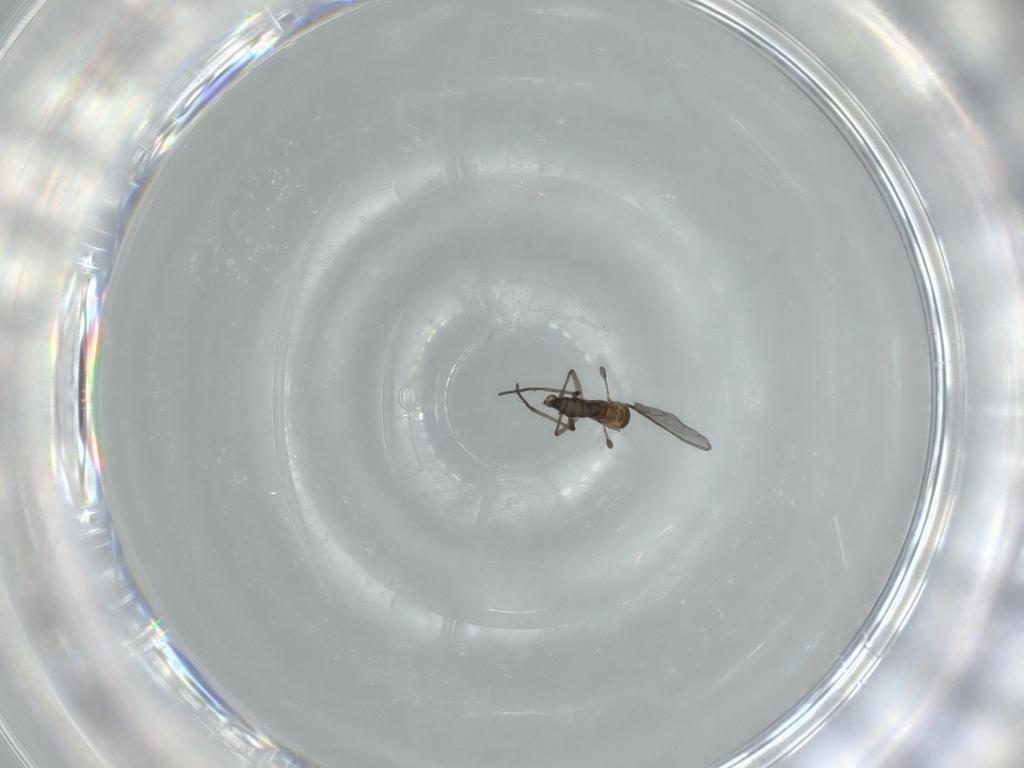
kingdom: Animalia
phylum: Arthropoda
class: Insecta
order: Diptera
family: Sciaridae
